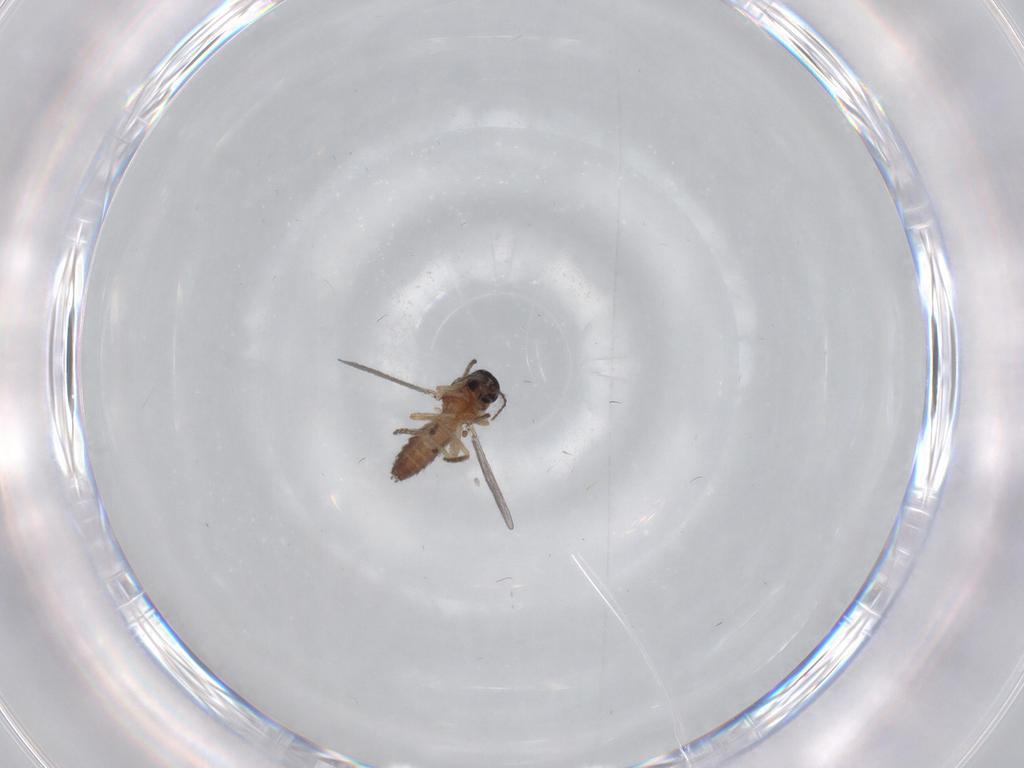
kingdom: Animalia
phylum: Arthropoda
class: Insecta
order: Diptera
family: Ceratopogonidae
